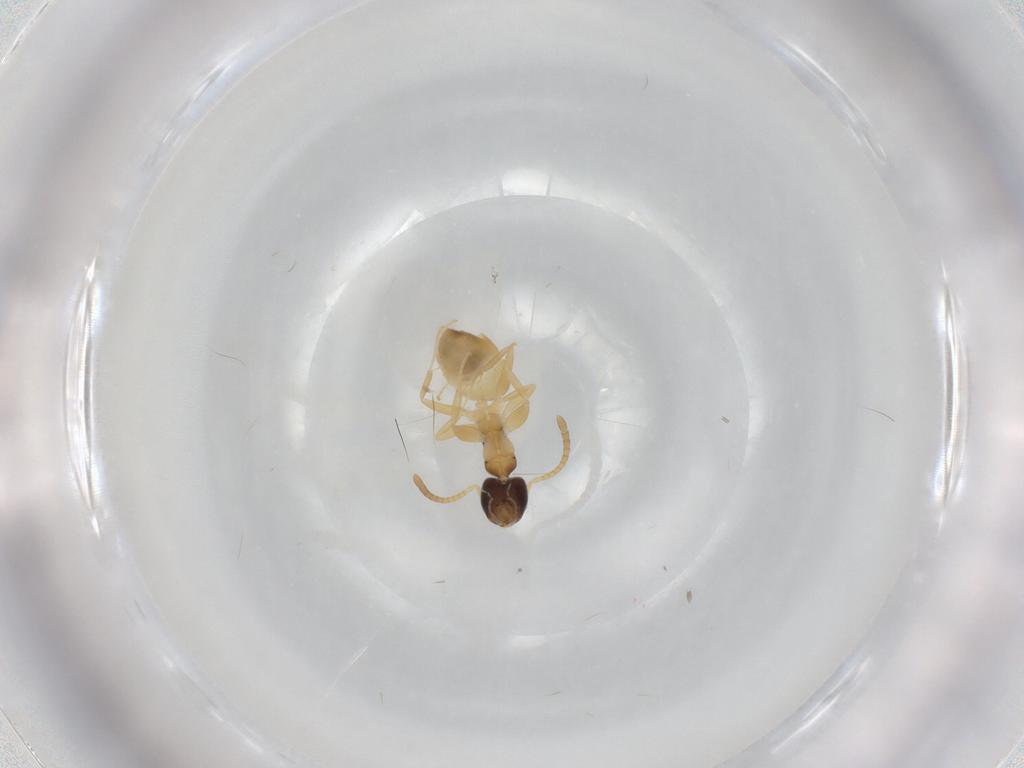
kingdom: Animalia
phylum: Arthropoda
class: Insecta
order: Hymenoptera
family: Formicidae
